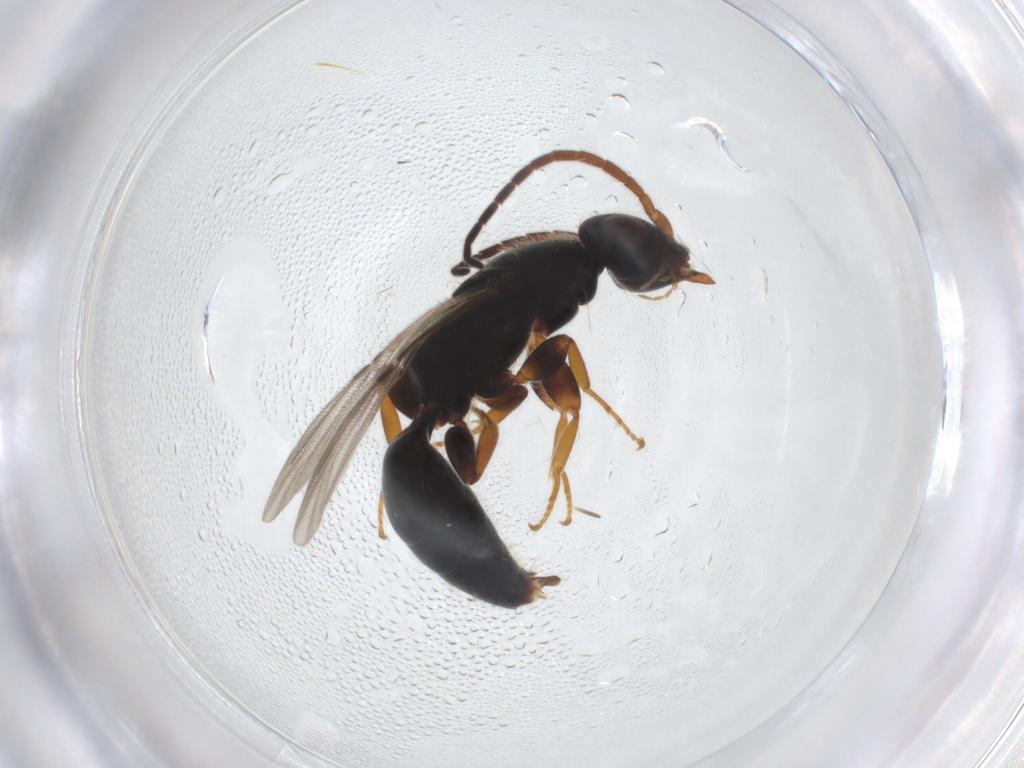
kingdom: Animalia
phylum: Arthropoda
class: Insecta
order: Hymenoptera
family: Bethylidae
